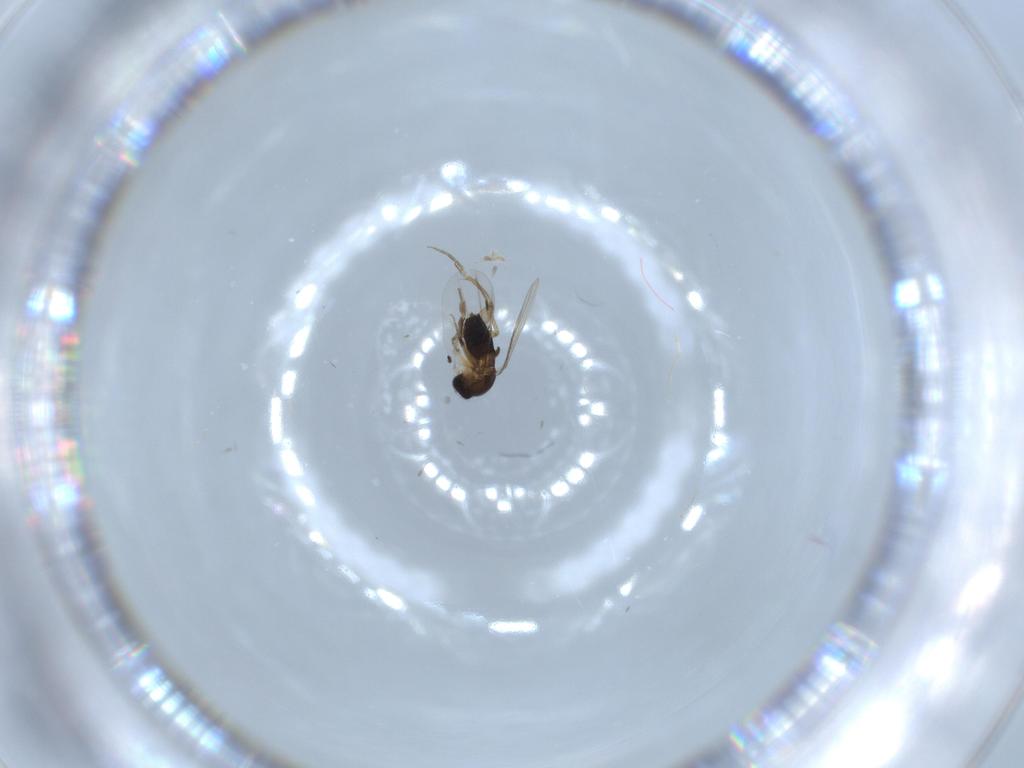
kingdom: Animalia
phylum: Arthropoda
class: Insecta
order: Diptera
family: Phoridae
